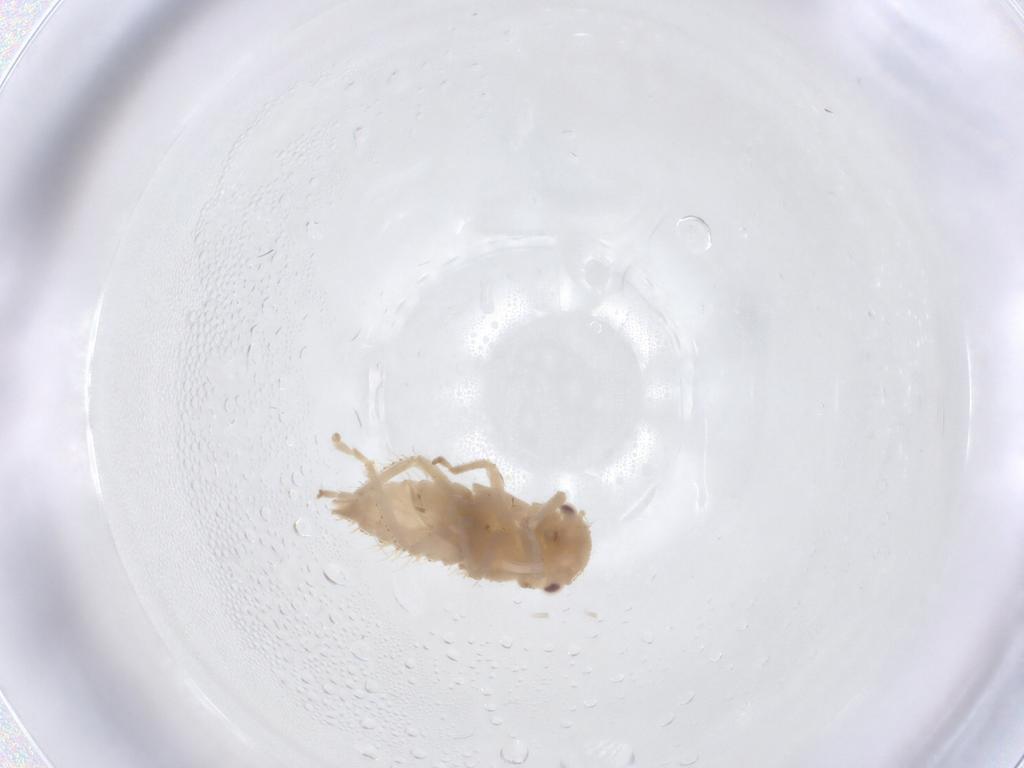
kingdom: Animalia
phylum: Arthropoda
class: Insecta
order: Hemiptera
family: Cicadellidae
